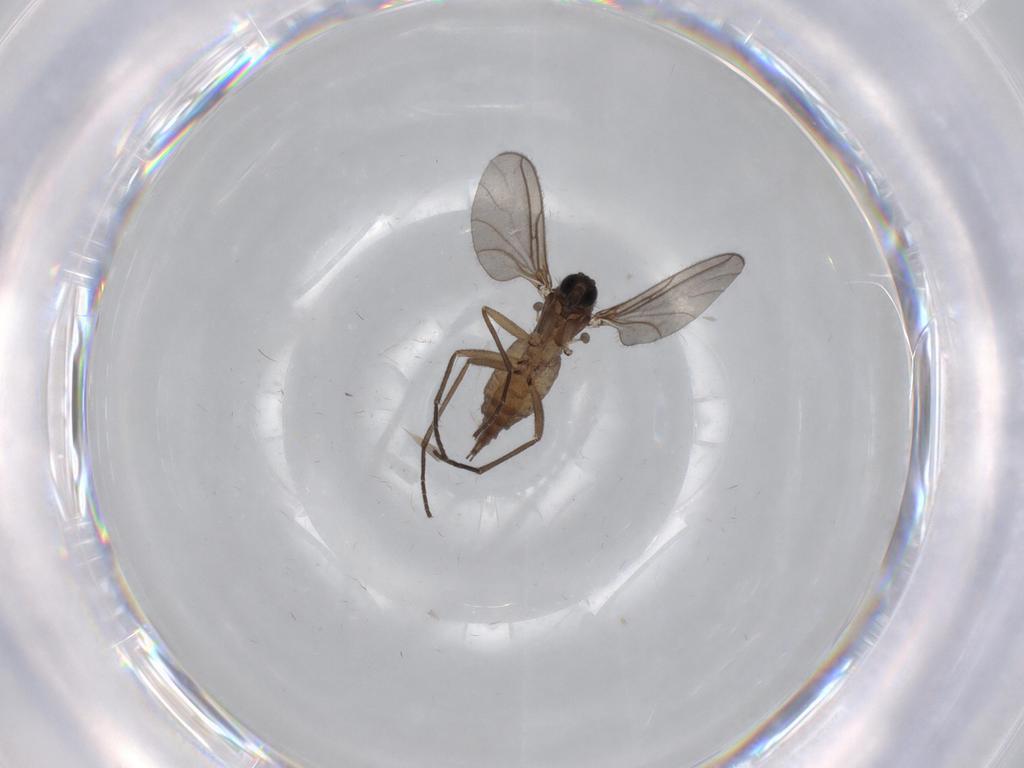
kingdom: Animalia
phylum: Arthropoda
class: Insecta
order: Diptera
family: Sciaridae
